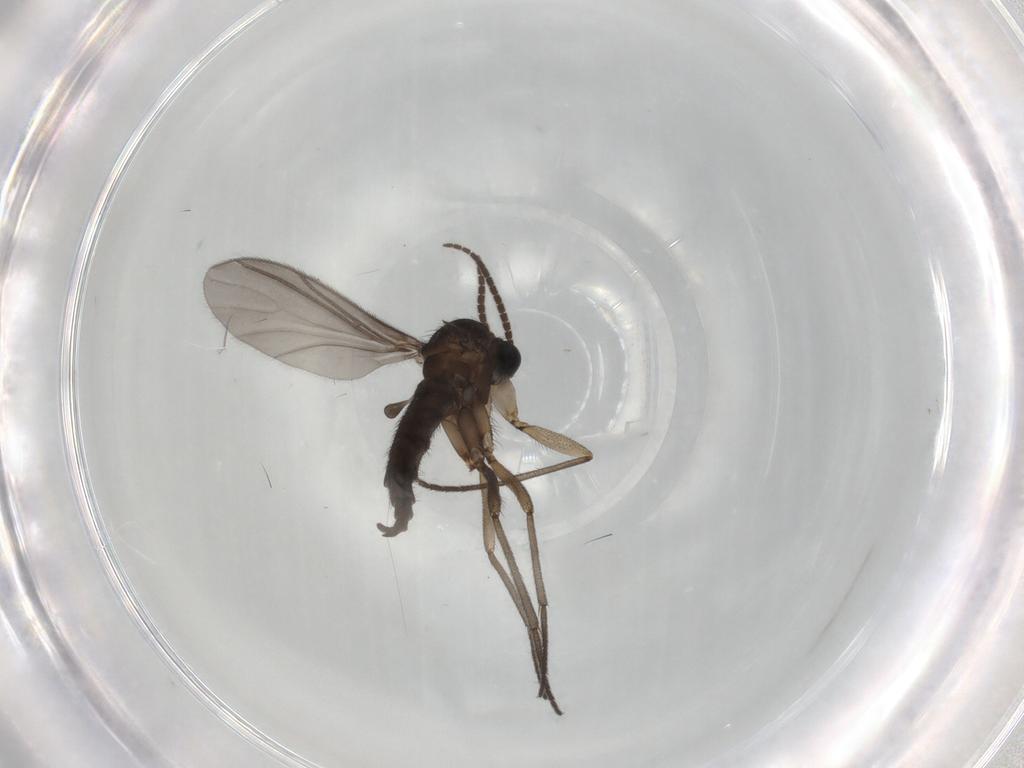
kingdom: Animalia
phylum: Arthropoda
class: Insecta
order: Diptera
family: Sciaridae
